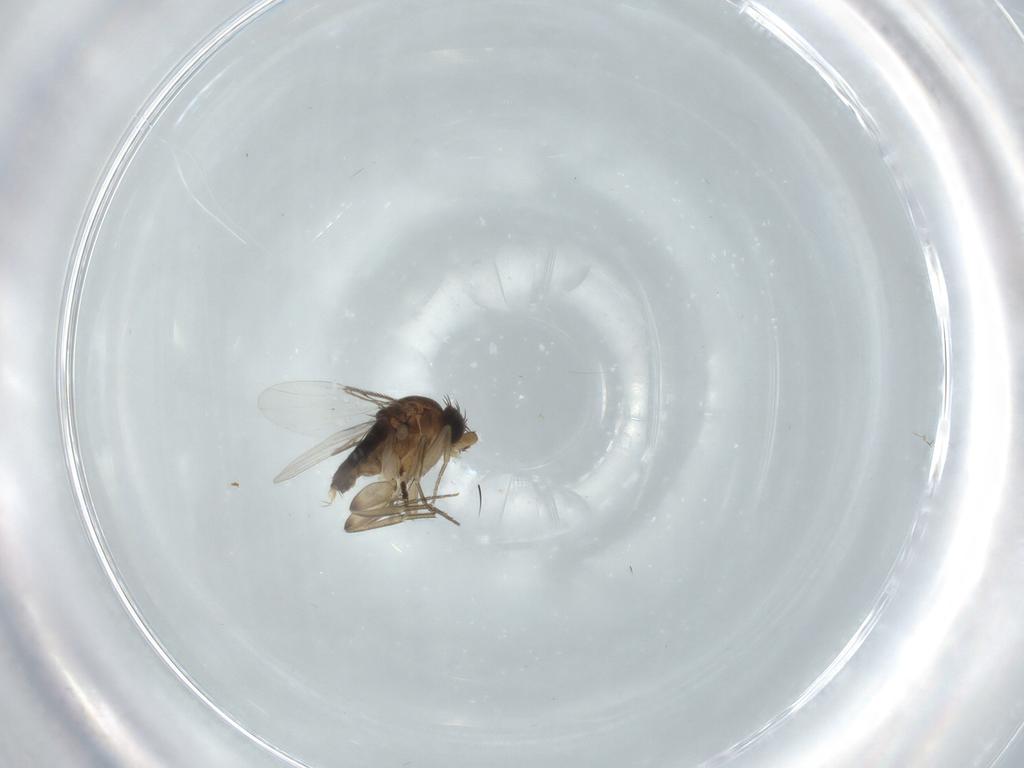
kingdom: Animalia
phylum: Arthropoda
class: Insecta
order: Diptera
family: Phoridae
